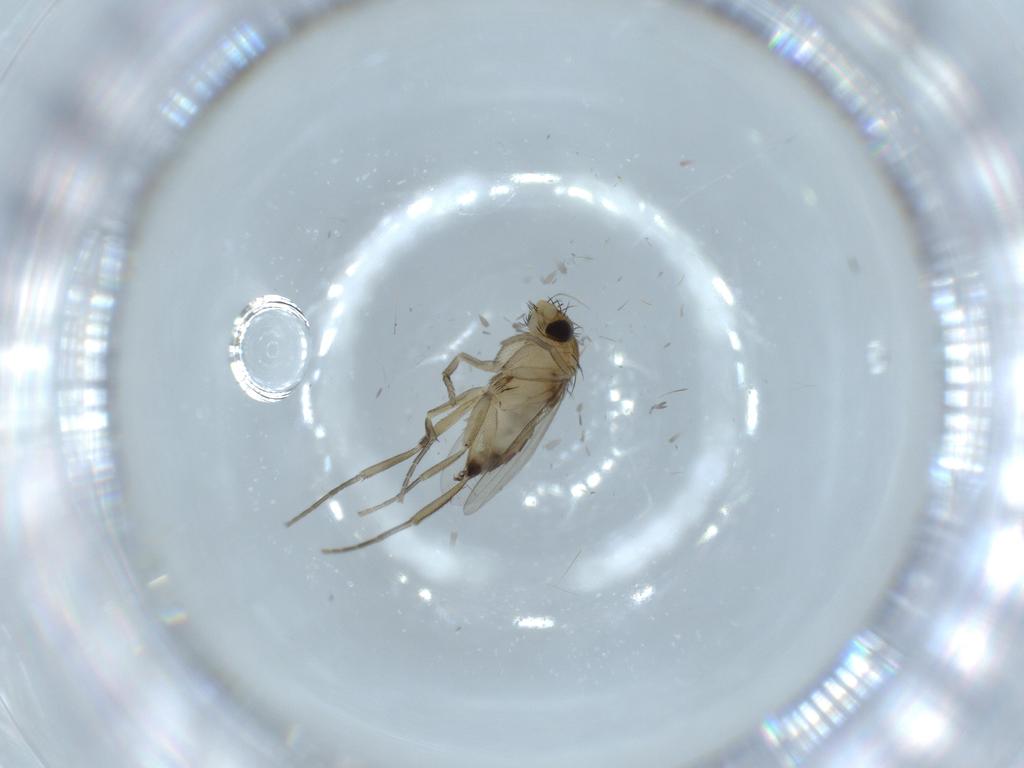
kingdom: Animalia
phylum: Arthropoda
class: Insecta
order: Diptera
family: Phoridae
